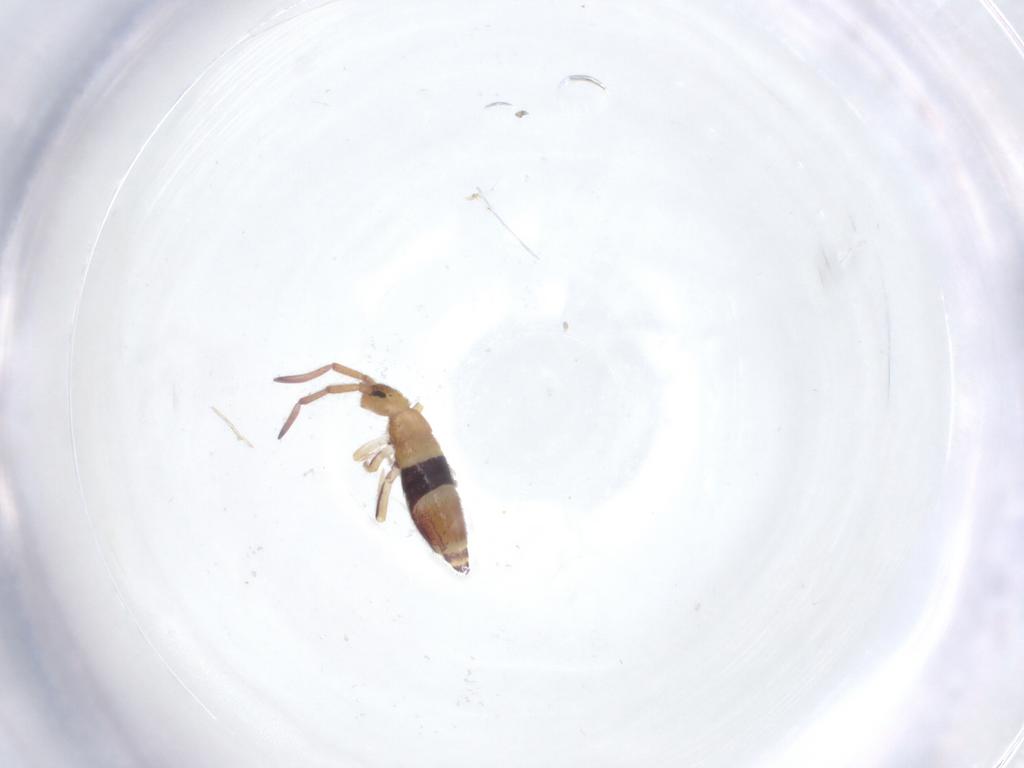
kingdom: Animalia
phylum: Arthropoda
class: Collembola
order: Entomobryomorpha
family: Entomobryidae
